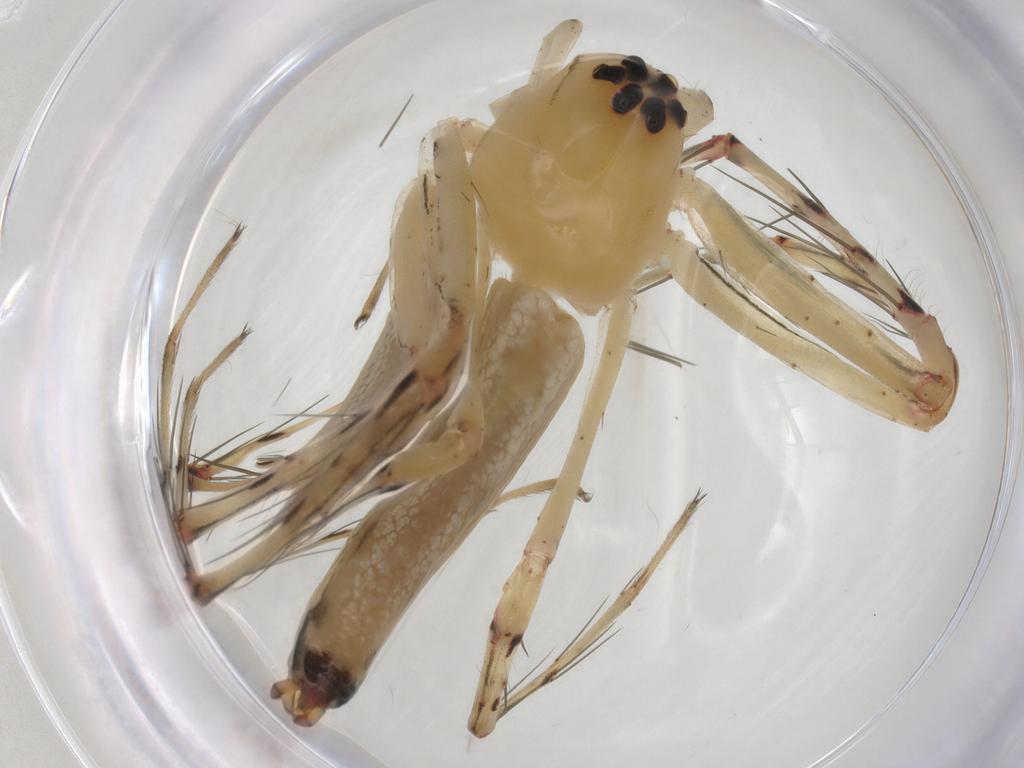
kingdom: Animalia
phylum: Arthropoda
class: Arachnida
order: Araneae
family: Oxyopidae
